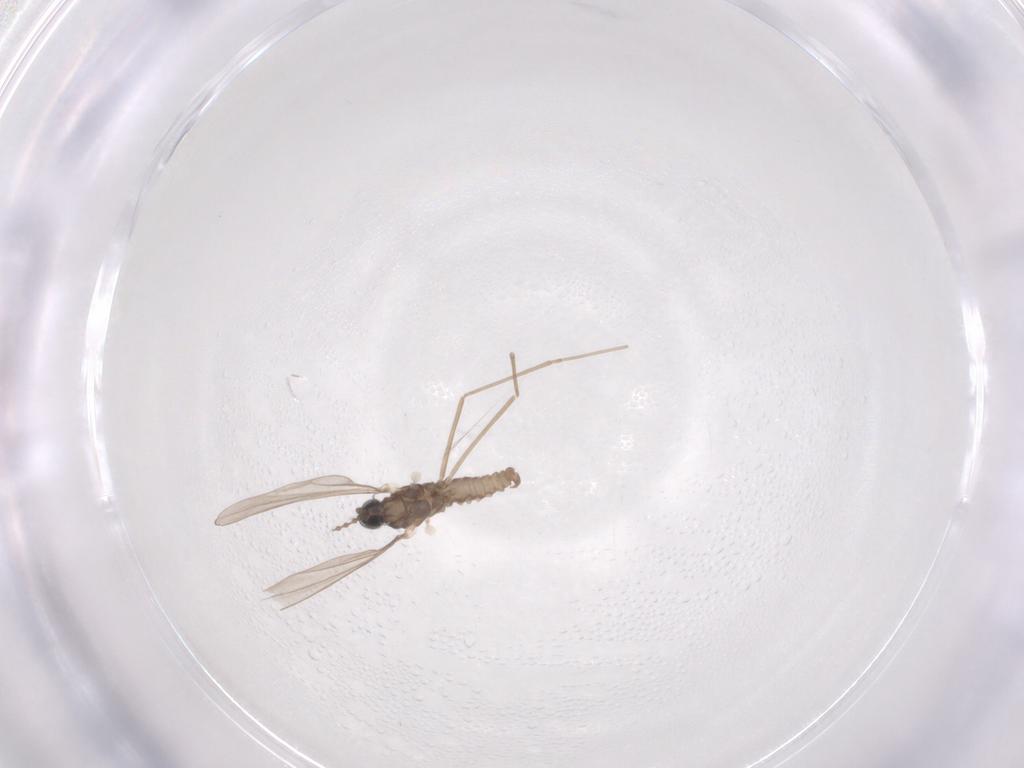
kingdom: Animalia
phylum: Arthropoda
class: Insecta
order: Diptera
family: Cecidomyiidae
